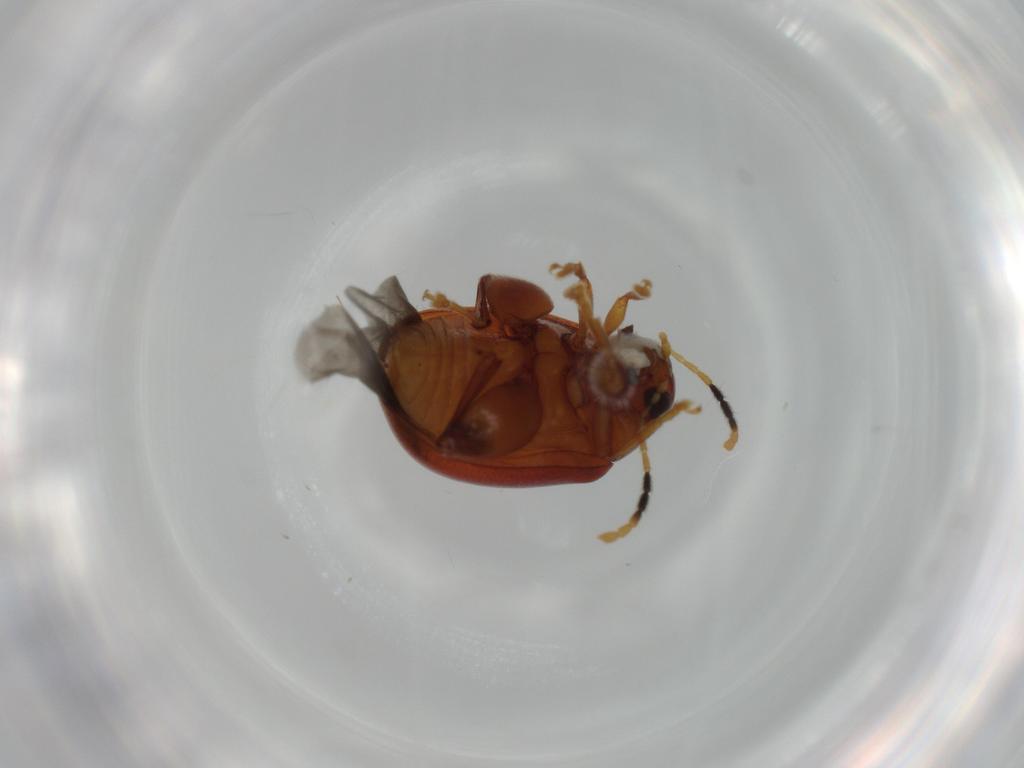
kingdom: Animalia
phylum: Arthropoda
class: Insecta
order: Coleoptera
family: Chrysomelidae
